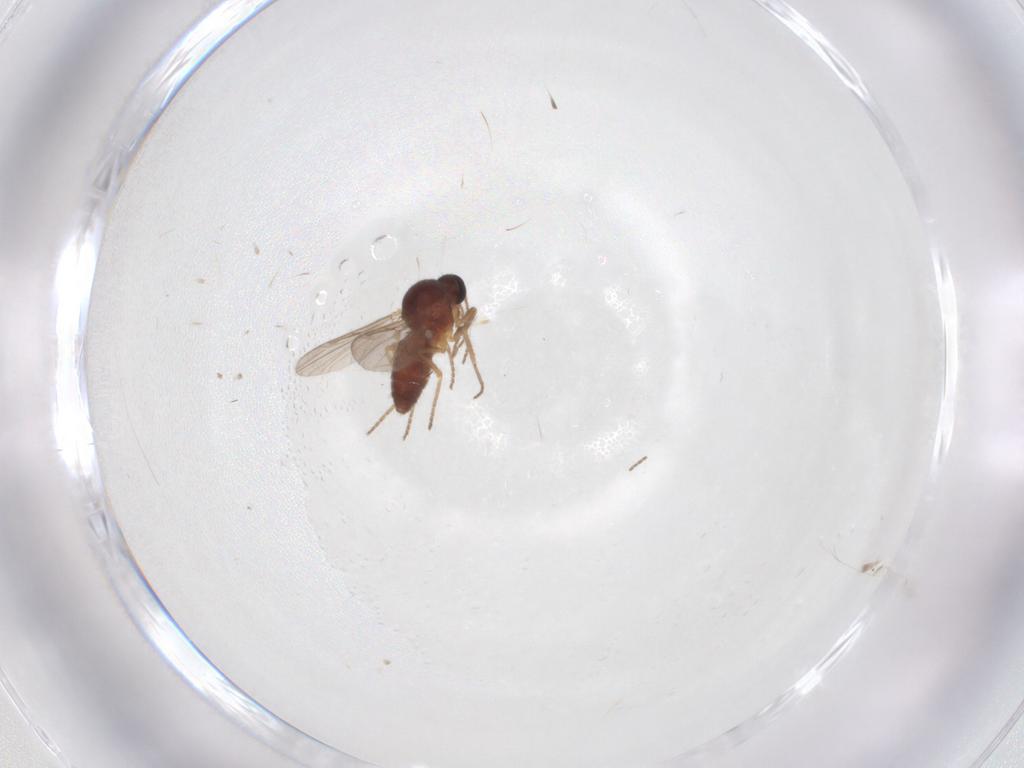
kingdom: Animalia
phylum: Arthropoda
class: Insecta
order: Diptera
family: Ceratopogonidae
